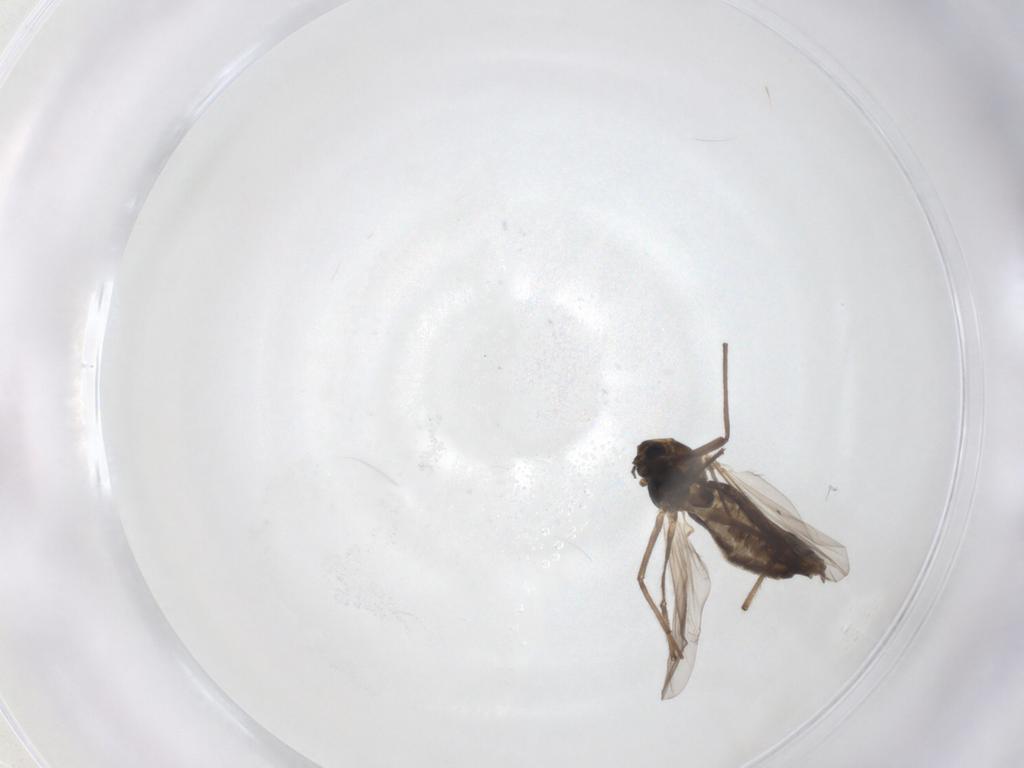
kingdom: Animalia
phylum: Arthropoda
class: Insecta
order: Diptera
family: Chironomidae
